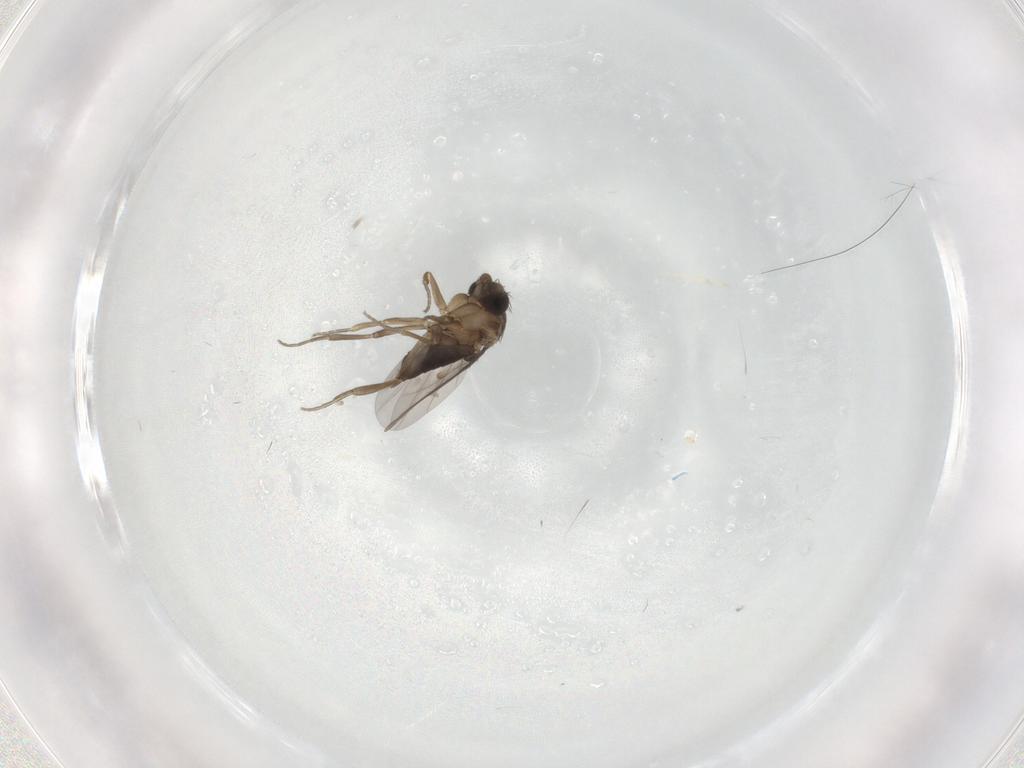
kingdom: Animalia
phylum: Arthropoda
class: Insecta
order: Diptera
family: Phoridae
